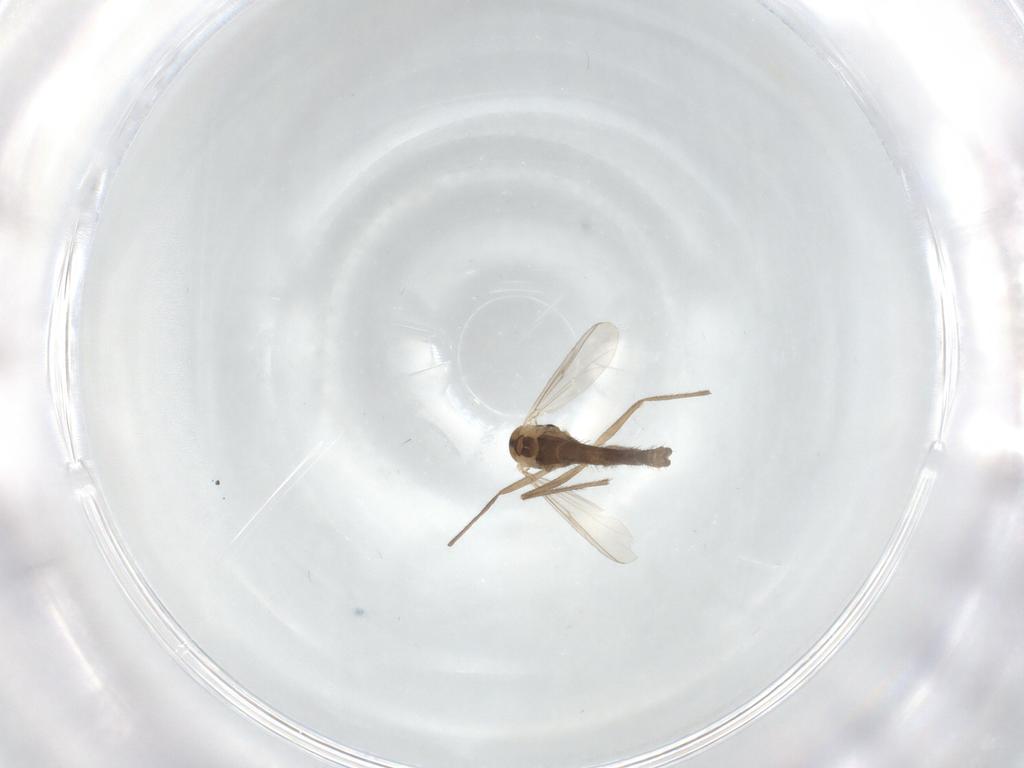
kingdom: Animalia
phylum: Arthropoda
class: Insecta
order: Diptera
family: Chironomidae
